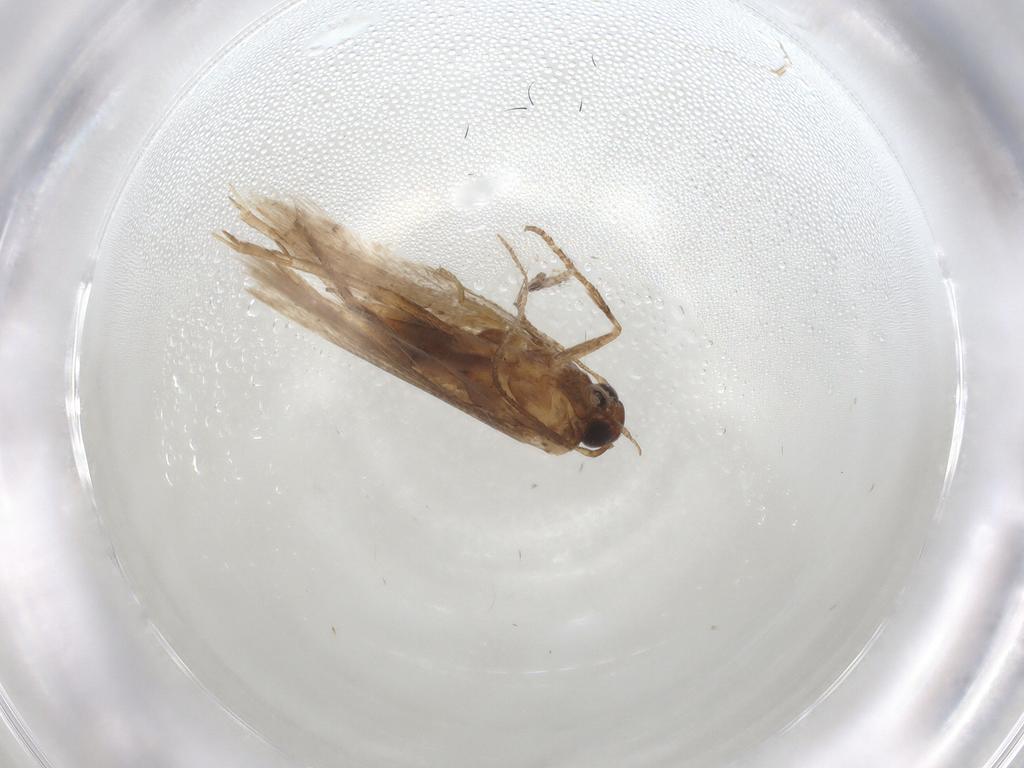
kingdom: Animalia
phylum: Arthropoda
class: Insecta
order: Lepidoptera
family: Gelechiidae
